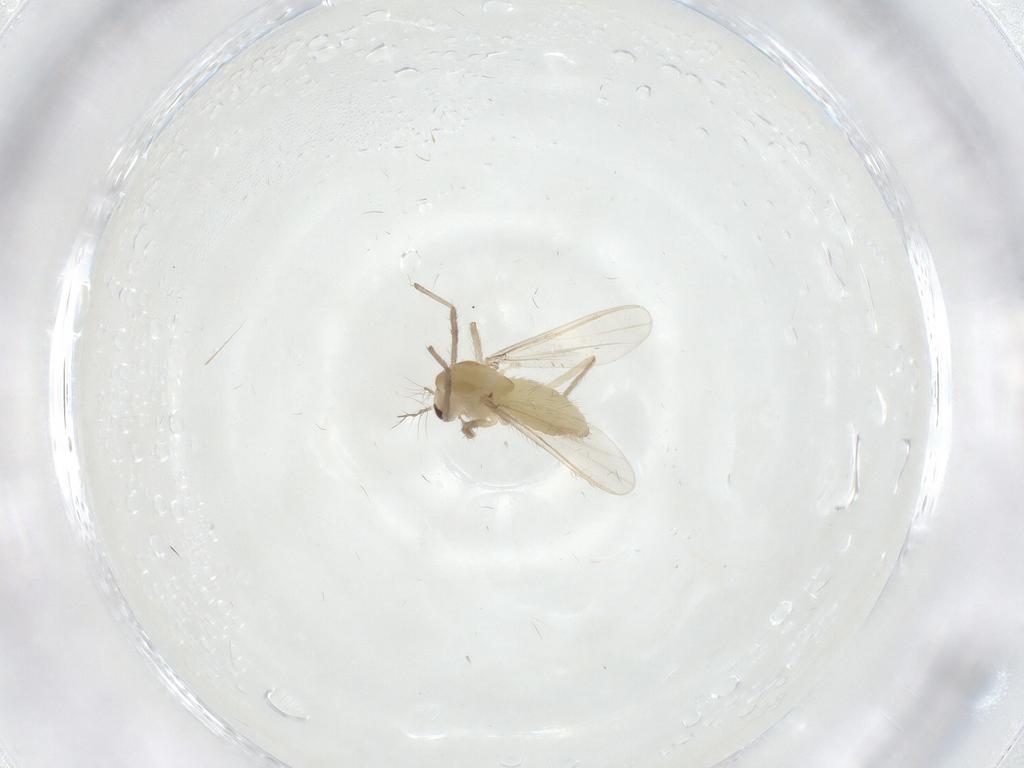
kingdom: Animalia
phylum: Arthropoda
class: Insecta
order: Diptera
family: Chironomidae
